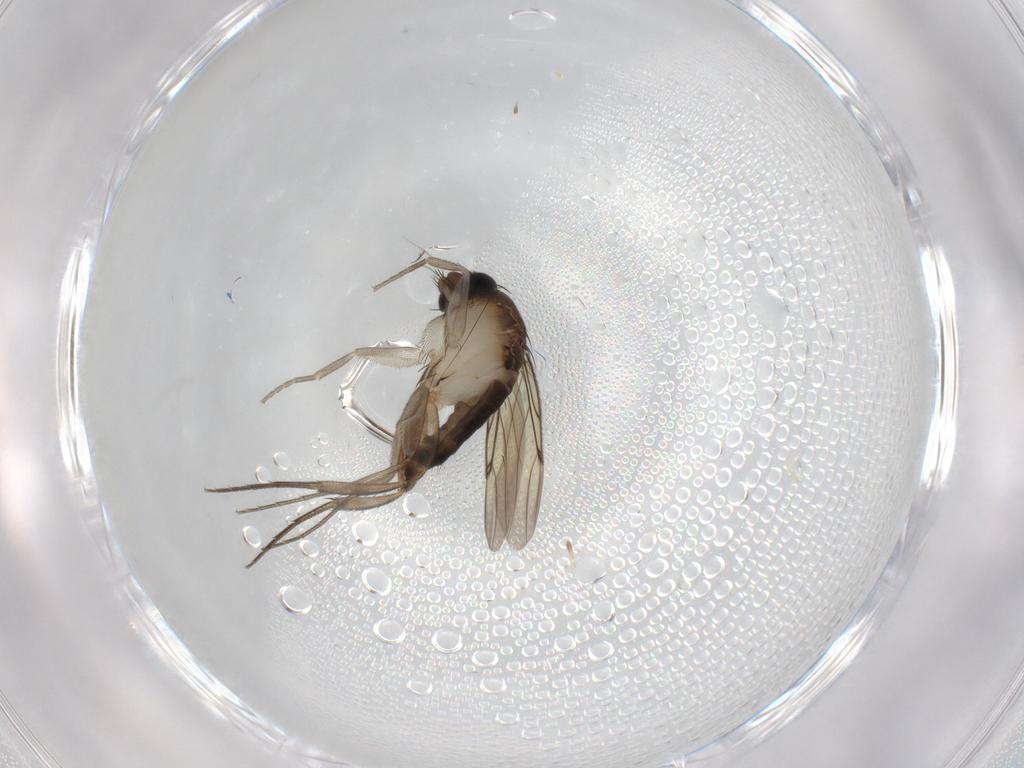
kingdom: Animalia
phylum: Arthropoda
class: Insecta
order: Diptera
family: Phoridae
